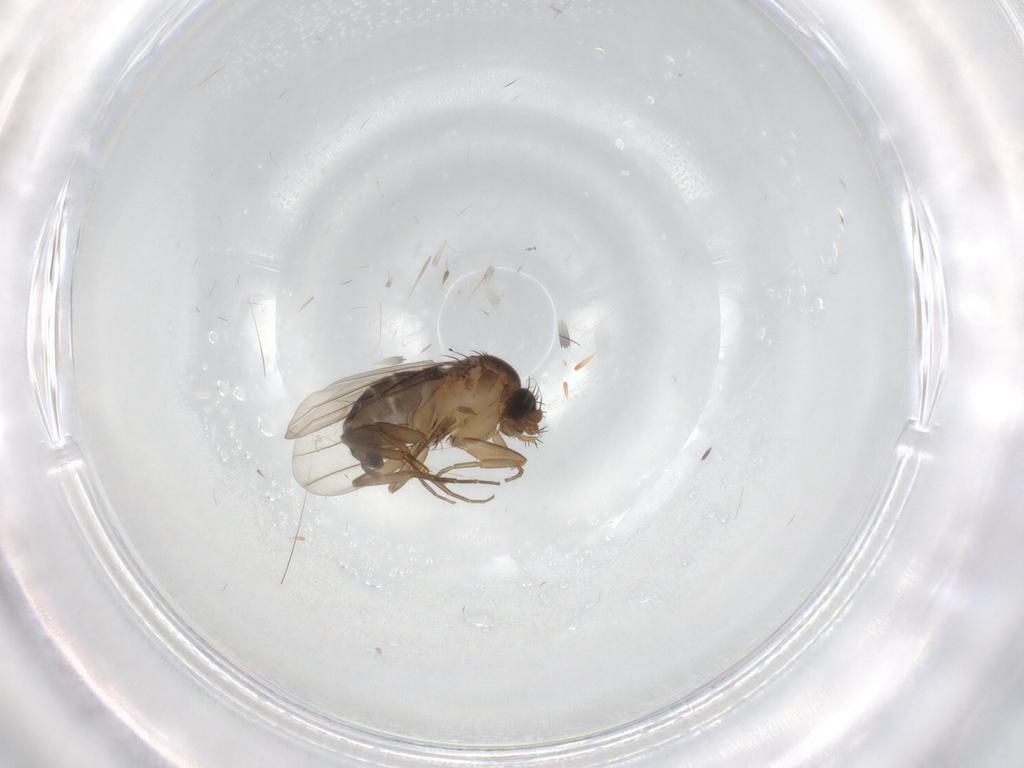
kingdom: Animalia
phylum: Arthropoda
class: Insecta
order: Diptera
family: Phoridae
